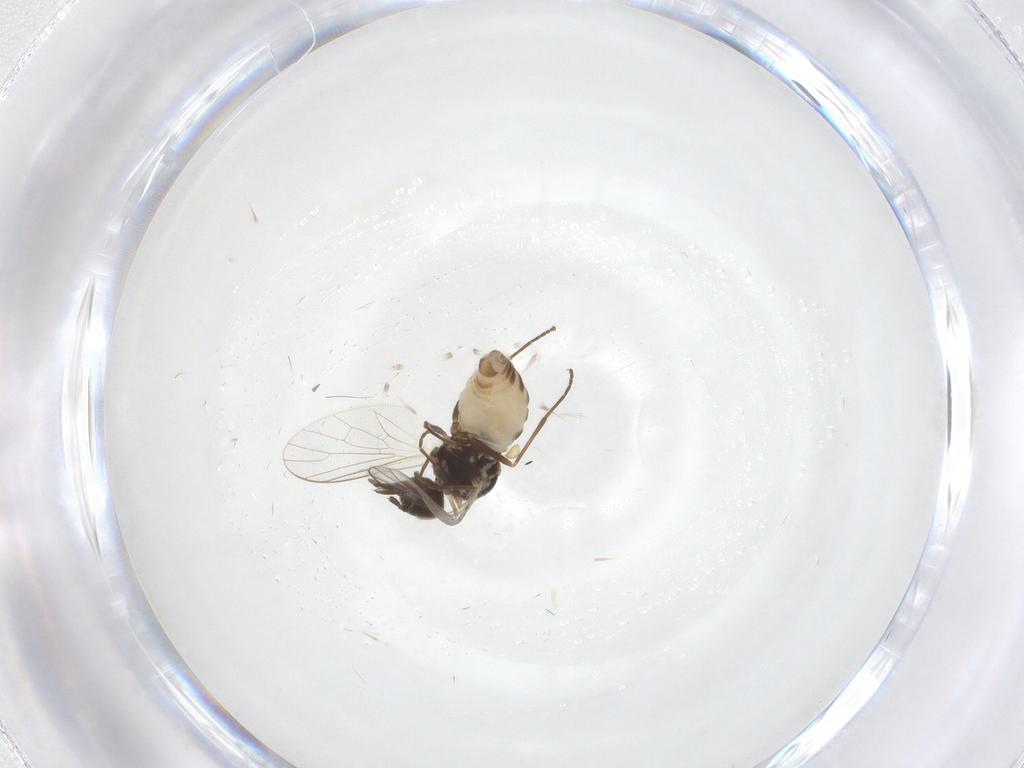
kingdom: Animalia
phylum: Arthropoda
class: Insecta
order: Diptera
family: Bombyliidae
